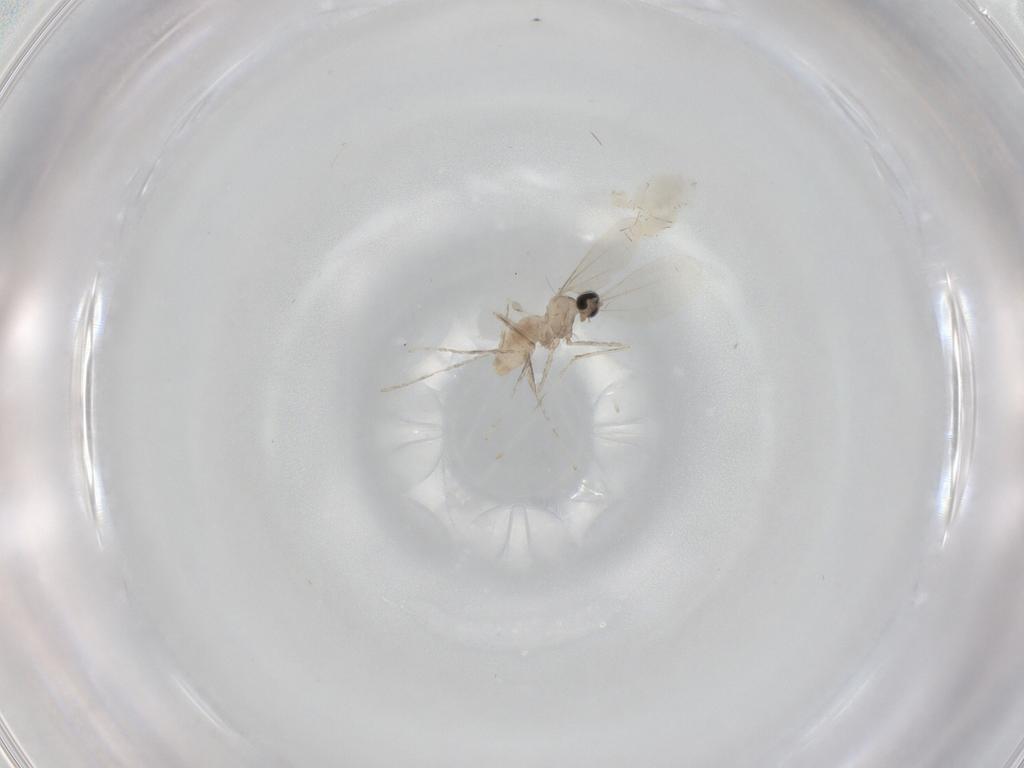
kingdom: Animalia
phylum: Arthropoda
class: Insecta
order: Diptera
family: Cecidomyiidae
